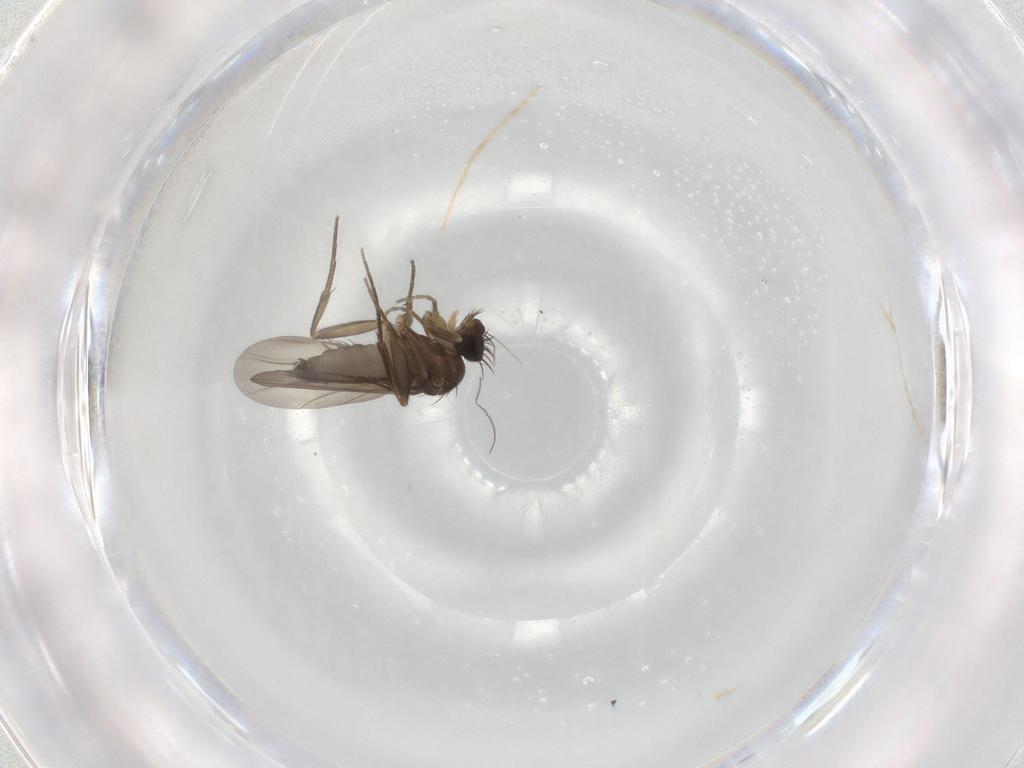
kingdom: Animalia
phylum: Arthropoda
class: Insecta
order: Diptera
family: Phoridae
